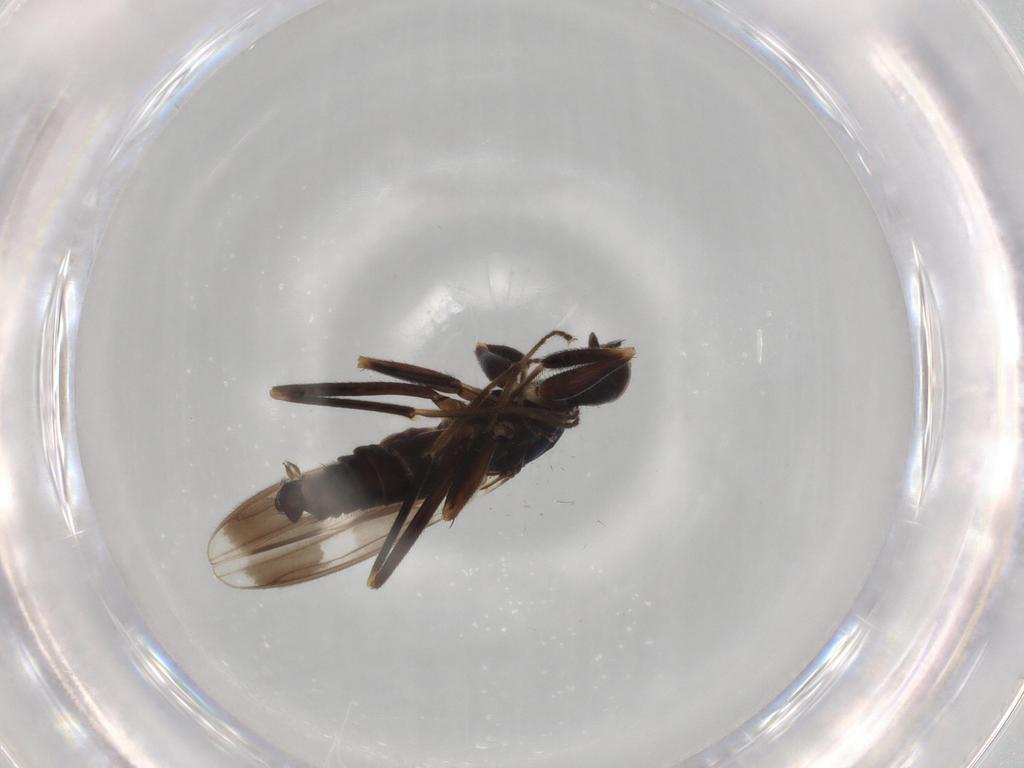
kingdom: Animalia
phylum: Arthropoda
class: Insecta
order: Diptera
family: Hybotidae
